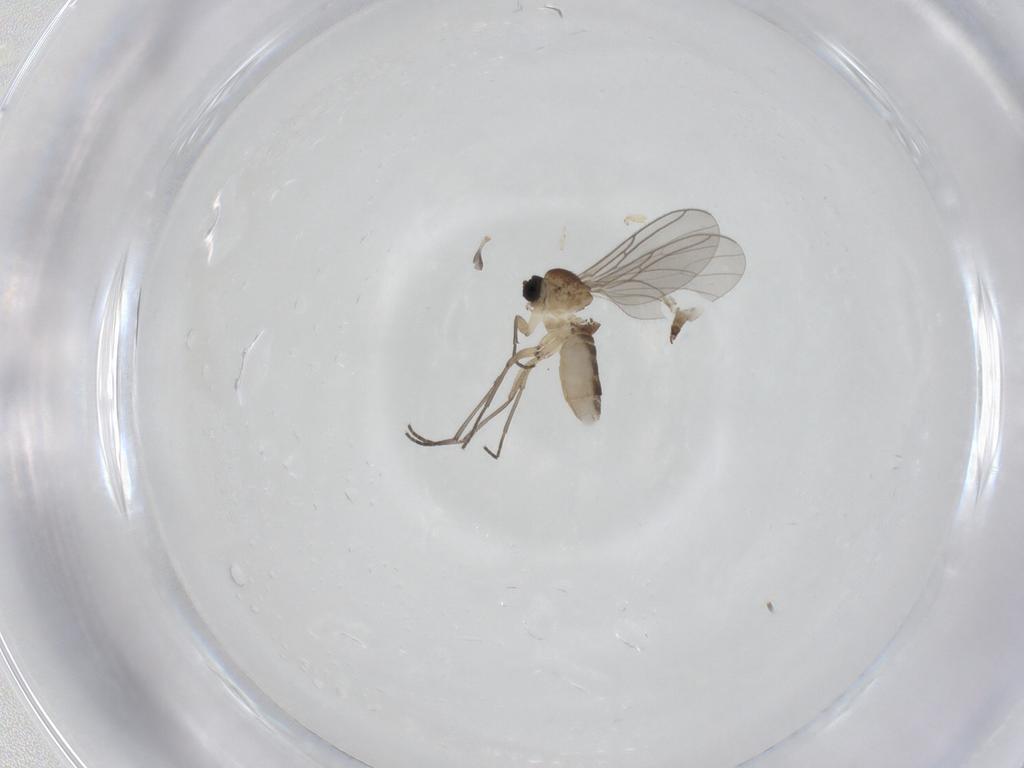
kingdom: Animalia
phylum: Arthropoda
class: Insecta
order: Diptera
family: Sciaridae
